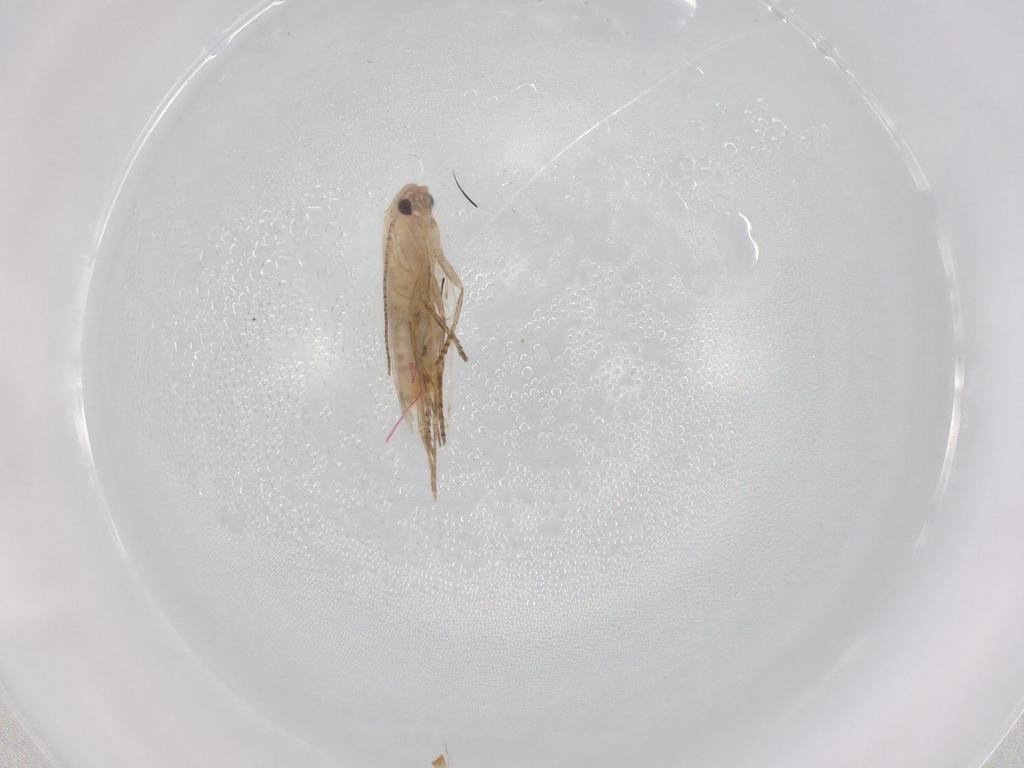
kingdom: Animalia
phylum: Arthropoda
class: Insecta
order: Lepidoptera
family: Bucculatricidae
